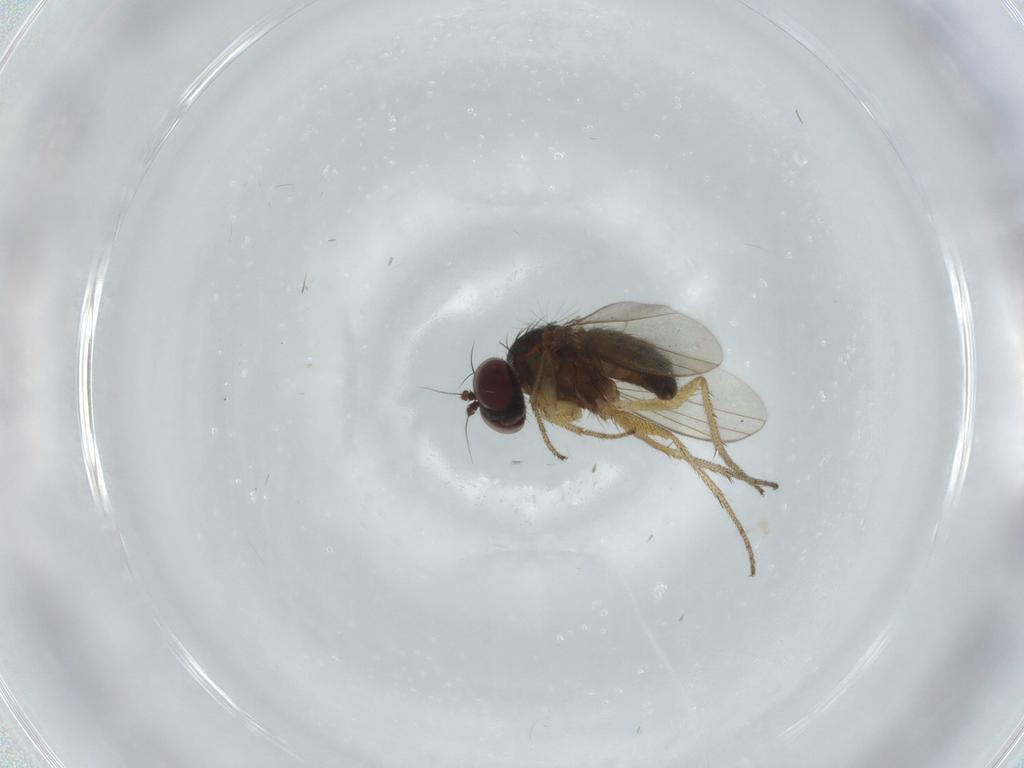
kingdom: Animalia
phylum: Arthropoda
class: Insecta
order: Diptera
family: Dolichopodidae
